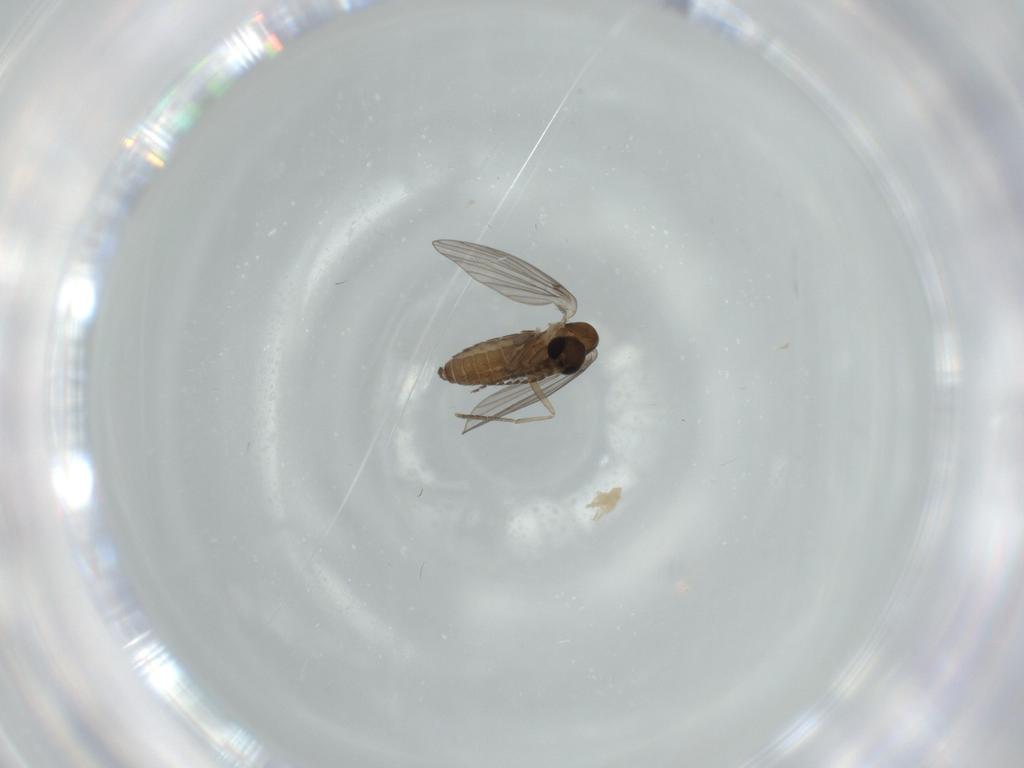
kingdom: Animalia
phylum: Arthropoda
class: Insecta
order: Diptera
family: Psychodidae
